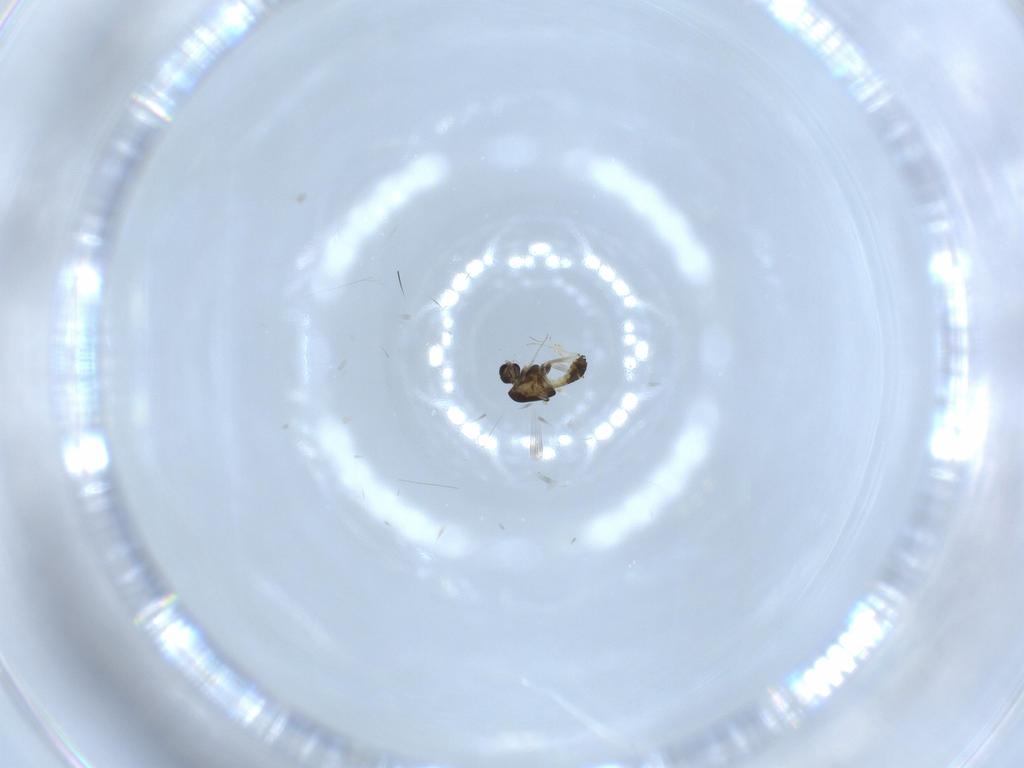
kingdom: Animalia
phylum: Arthropoda
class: Insecta
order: Diptera
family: Chironomidae
